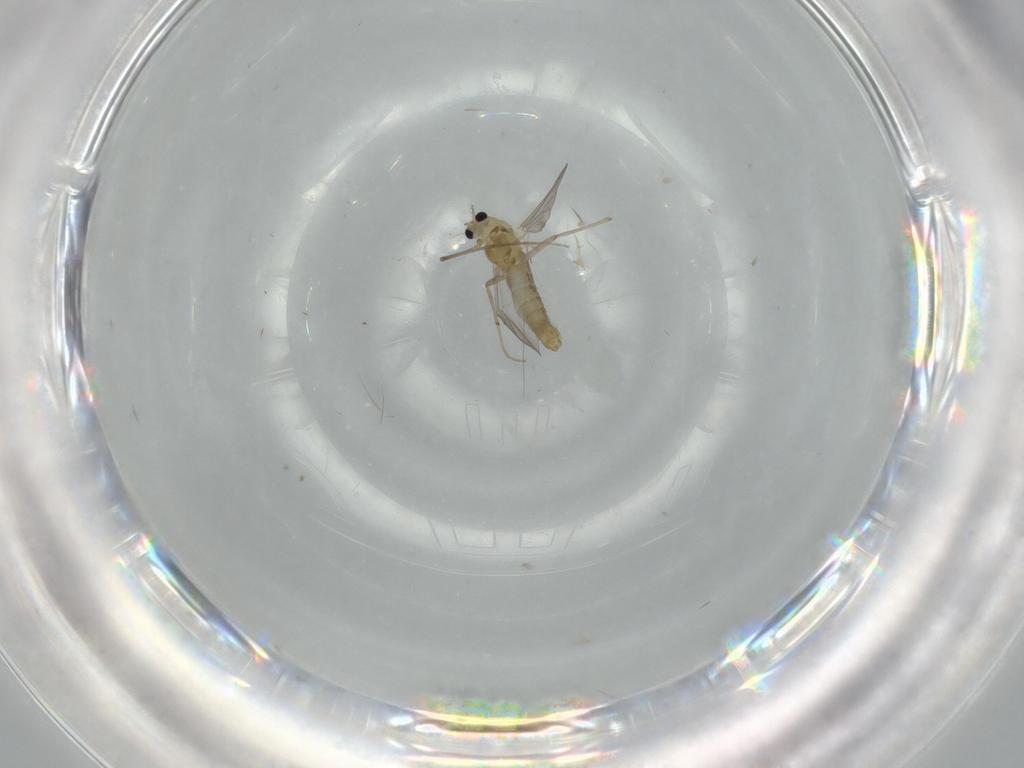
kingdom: Animalia
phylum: Arthropoda
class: Insecta
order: Diptera
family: Chironomidae
